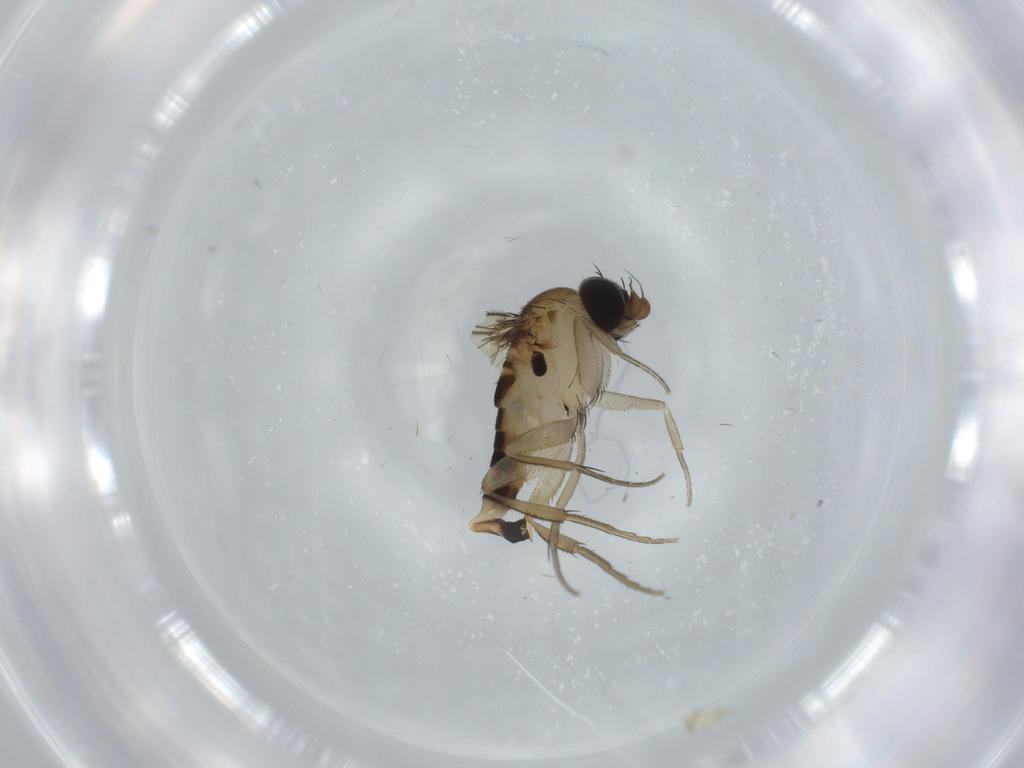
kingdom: Animalia
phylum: Arthropoda
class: Insecta
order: Diptera
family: Phoridae
